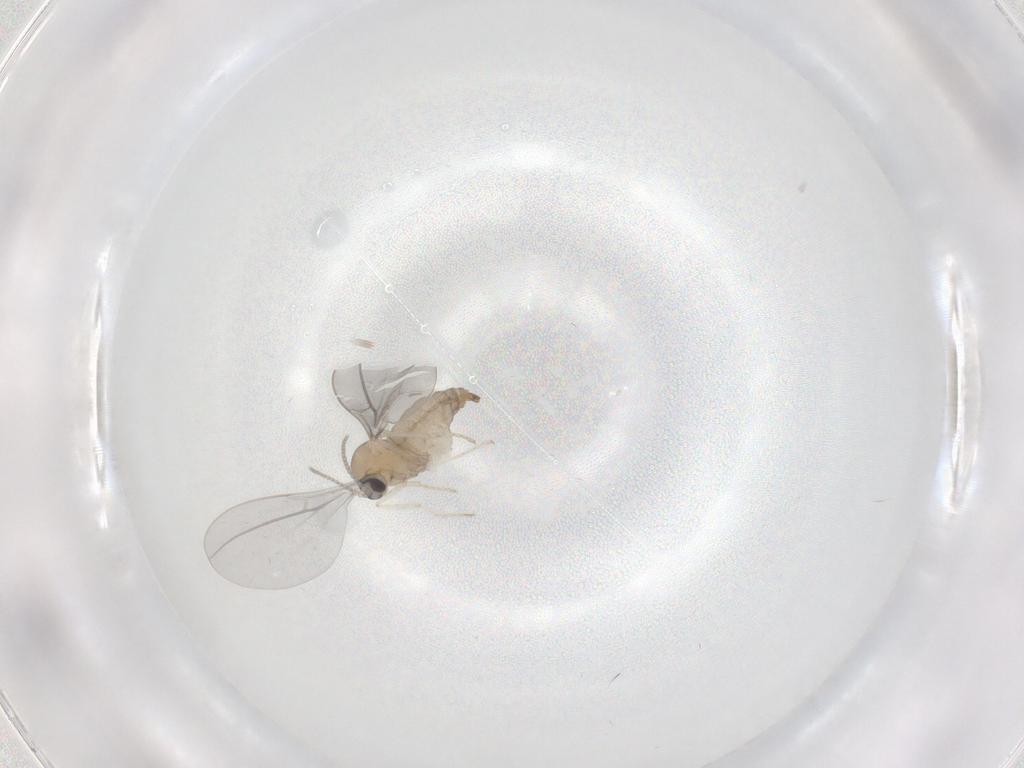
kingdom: Animalia
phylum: Arthropoda
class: Insecta
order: Diptera
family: Cecidomyiidae
